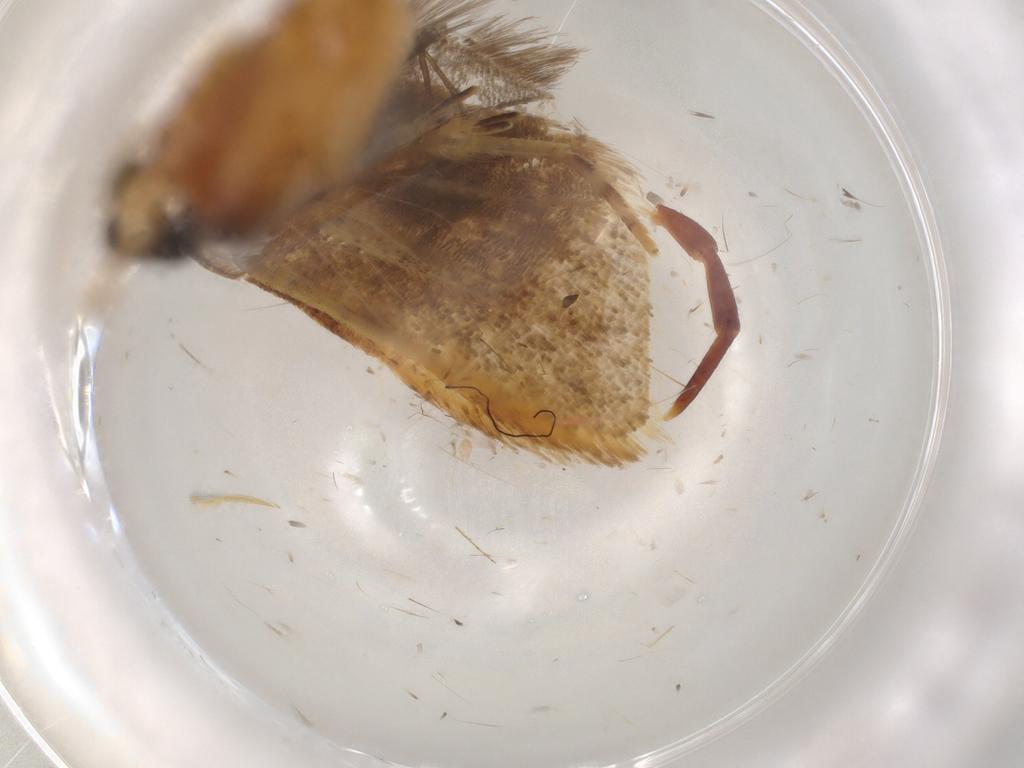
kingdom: Animalia
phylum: Arthropoda
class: Insecta
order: Lepidoptera
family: Lecithoceridae
